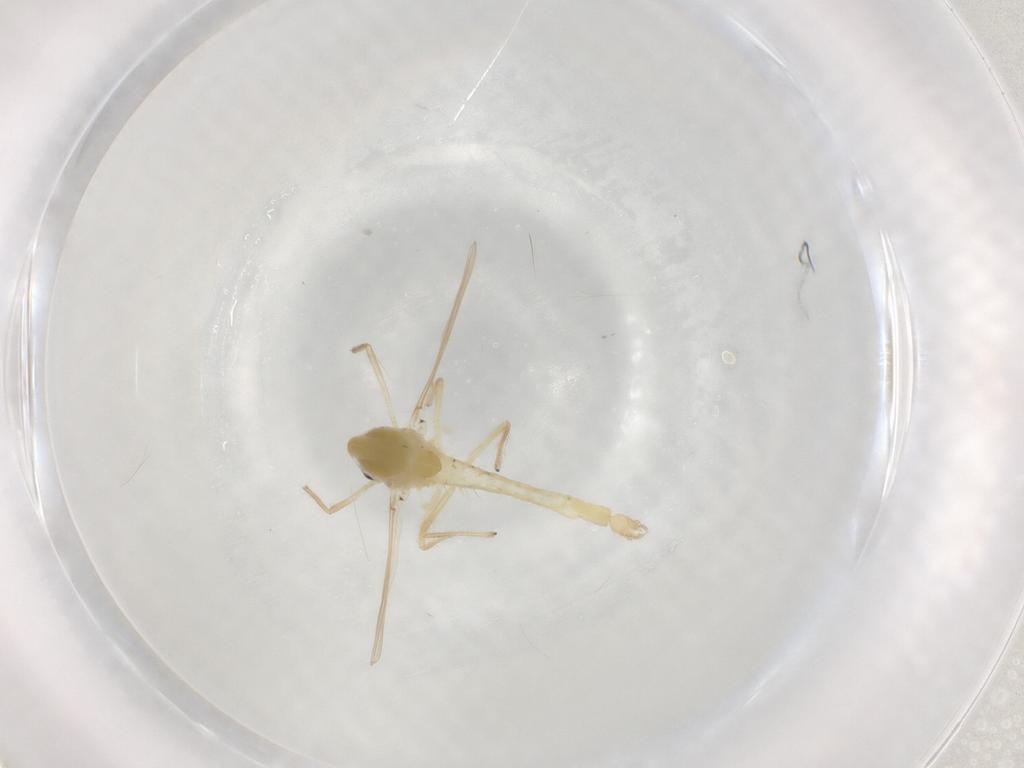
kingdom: Animalia
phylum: Arthropoda
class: Insecta
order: Diptera
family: Chironomidae
